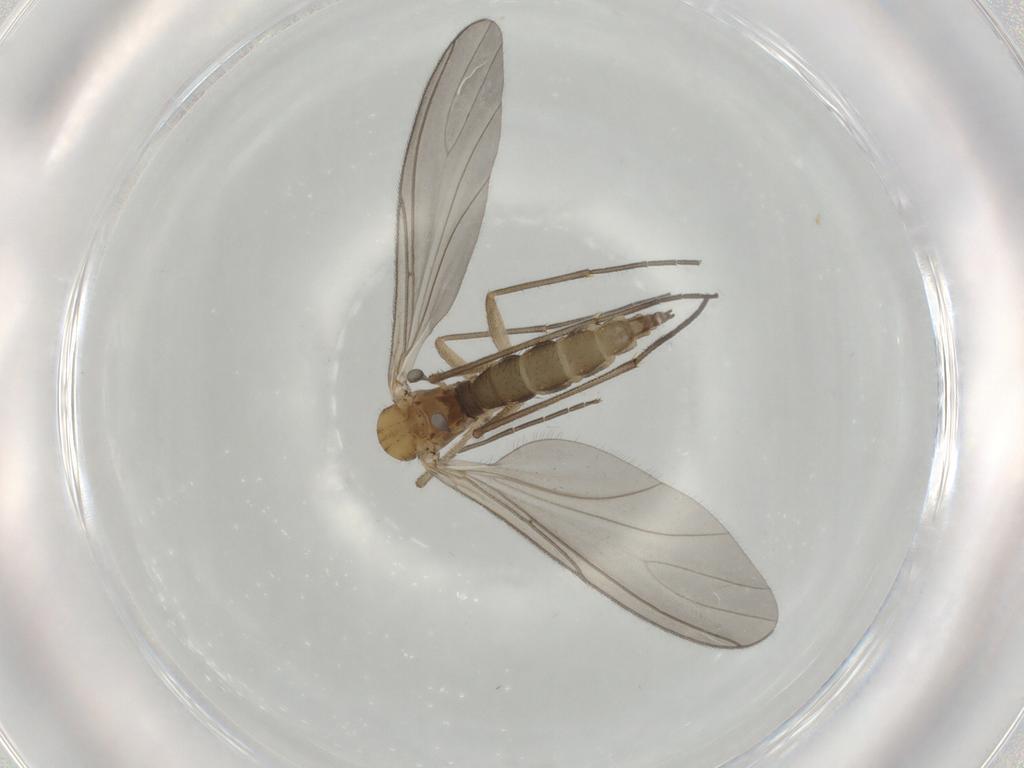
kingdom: Animalia
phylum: Arthropoda
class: Insecta
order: Diptera
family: Sciaridae
